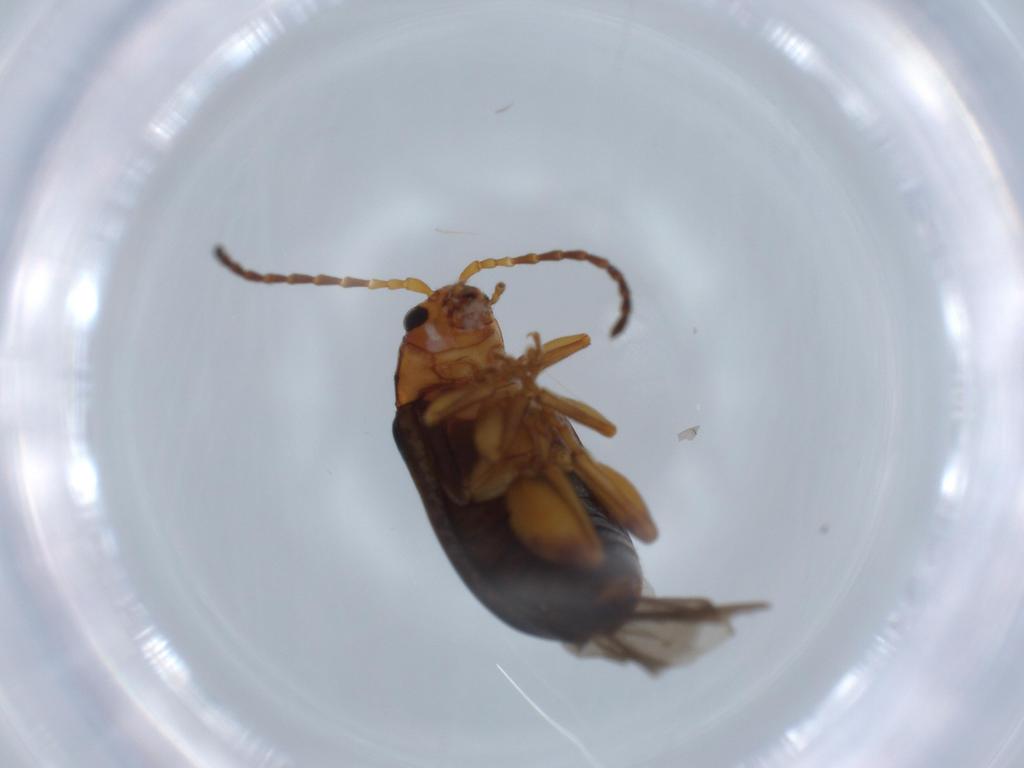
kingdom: Animalia
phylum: Arthropoda
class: Insecta
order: Coleoptera
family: Chrysomelidae
